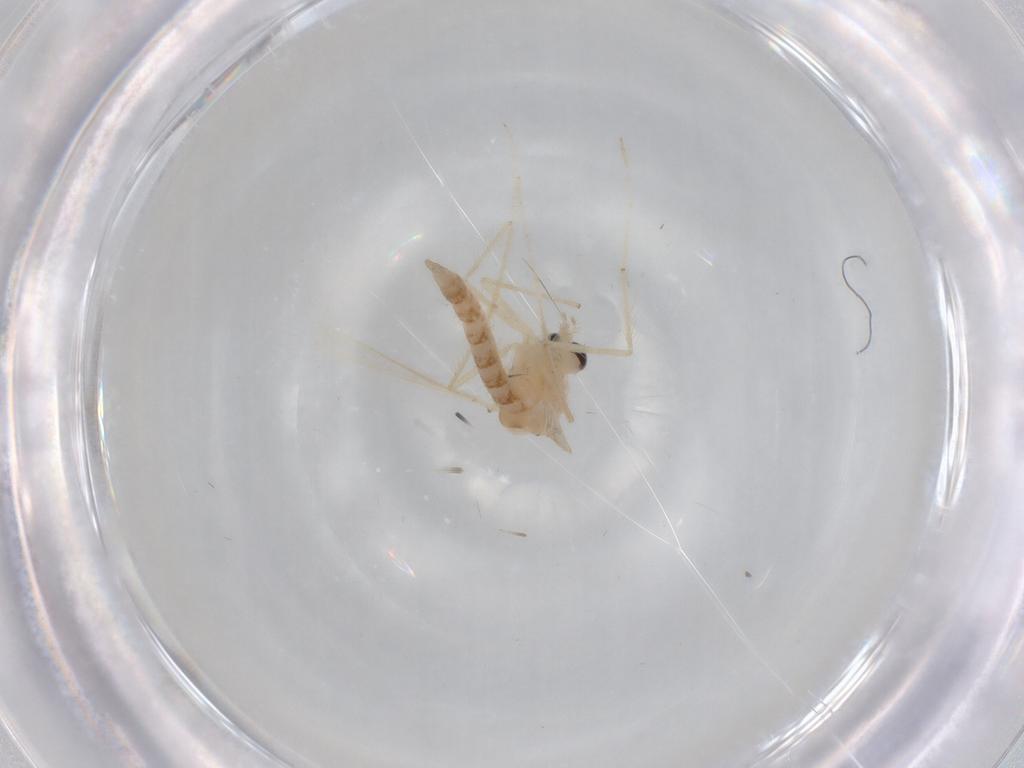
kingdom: Animalia
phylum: Arthropoda
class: Insecta
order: Diptera
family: Chironomidae
